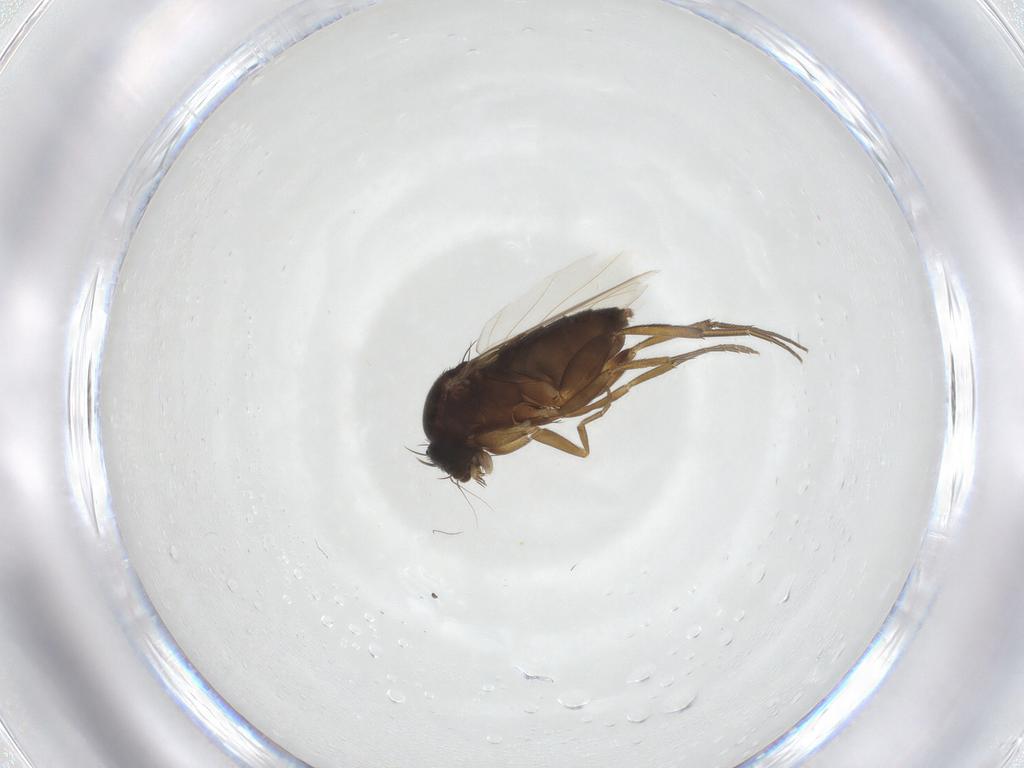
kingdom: Animalia
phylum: Arthropoda
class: Insecta
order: Diptera
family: Phoridae
